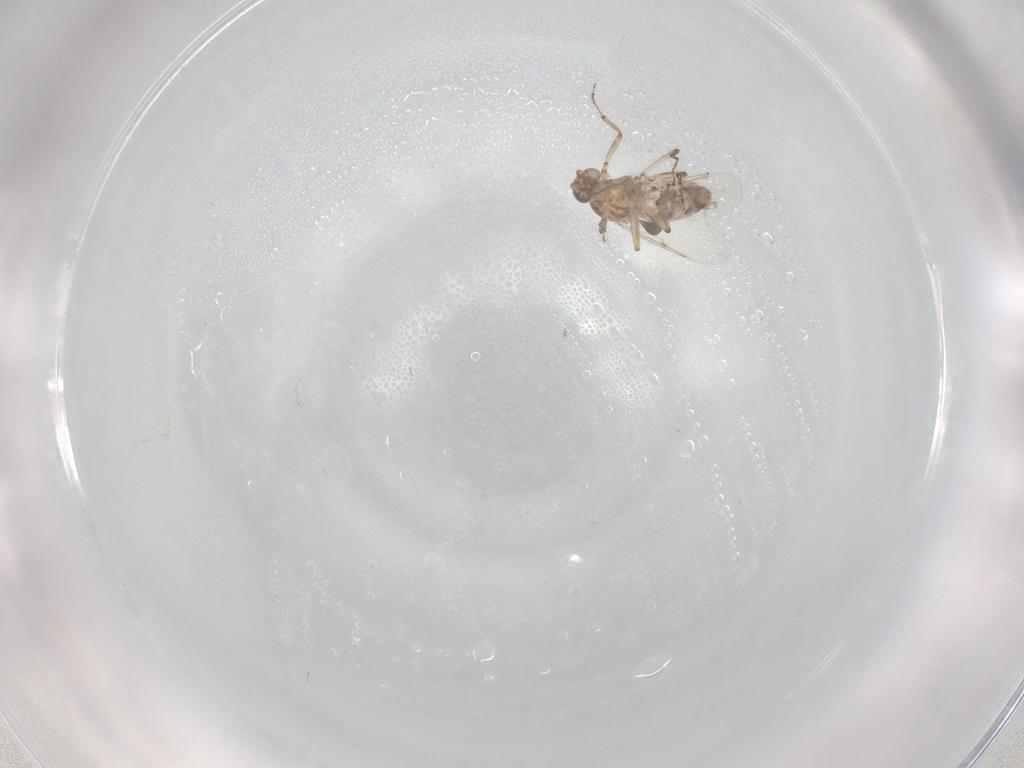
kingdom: Animalia
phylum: Arthropoda
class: Insecta
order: Diptera
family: Ceratopogonidae
